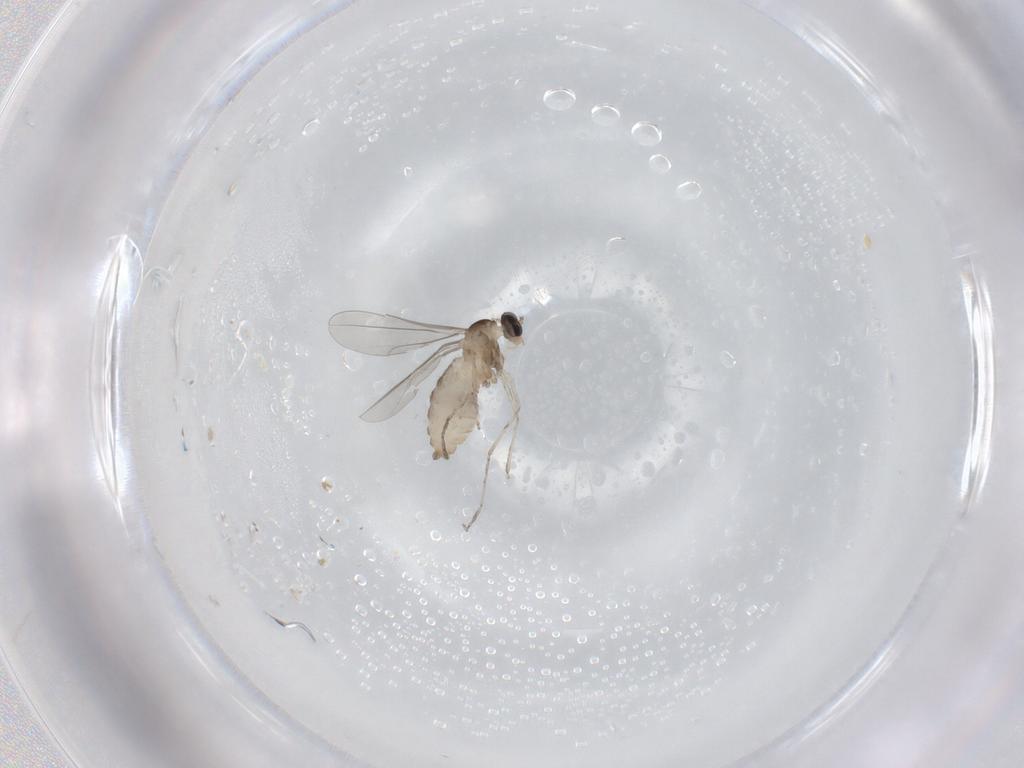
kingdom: Animalia
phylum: Arthropoda
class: Insecta
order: Diptera
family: Cecidomyiidae
